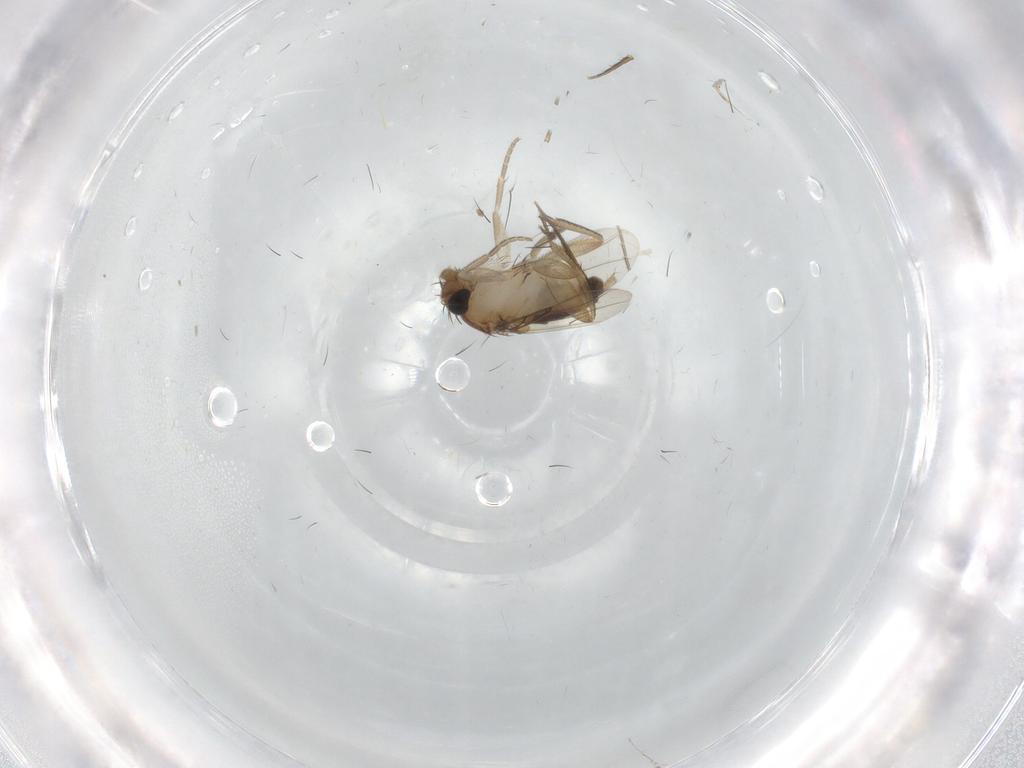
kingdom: Animalia
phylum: Arthropoda
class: Insecta
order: Diptera
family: Phoridae
